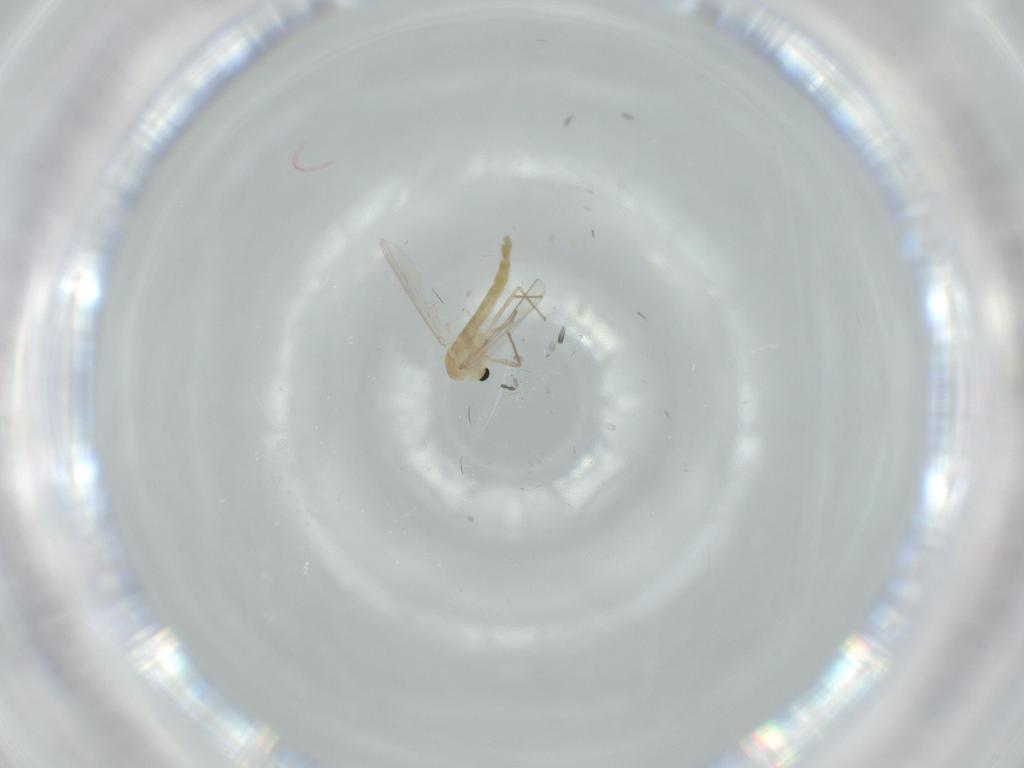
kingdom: Animalia
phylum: Arthropoda
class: Insecta
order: Diptera
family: Chironomidae
